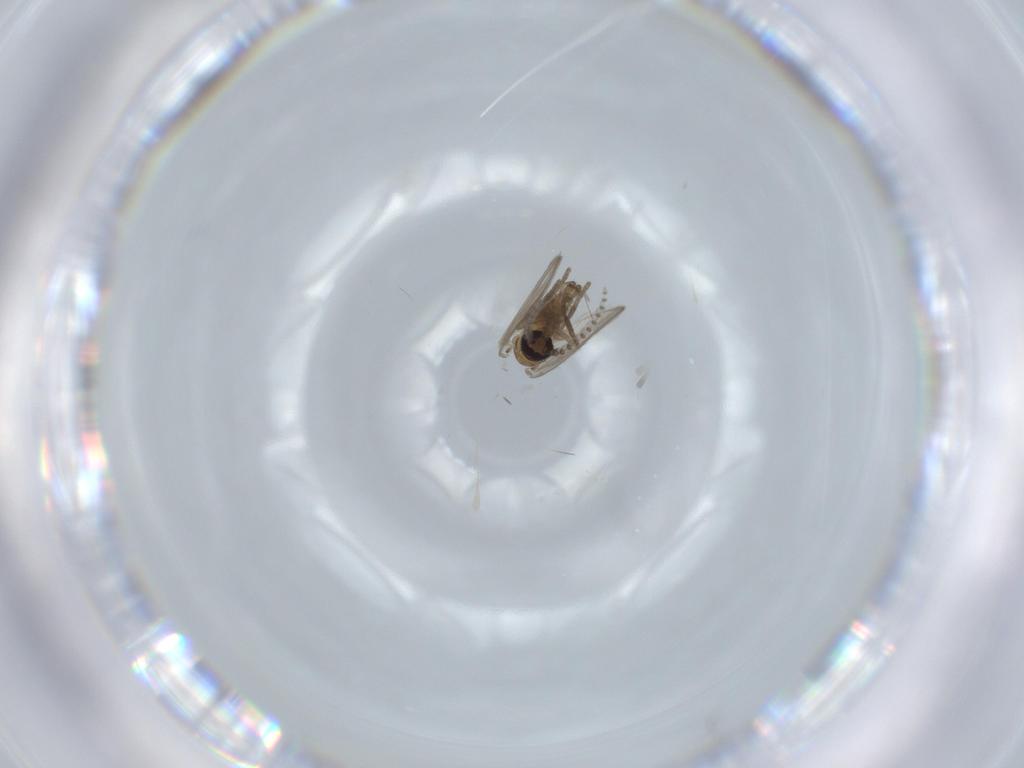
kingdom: Animalia
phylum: Arthropoda
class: Insecta
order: Diptera
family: Psychodidae
